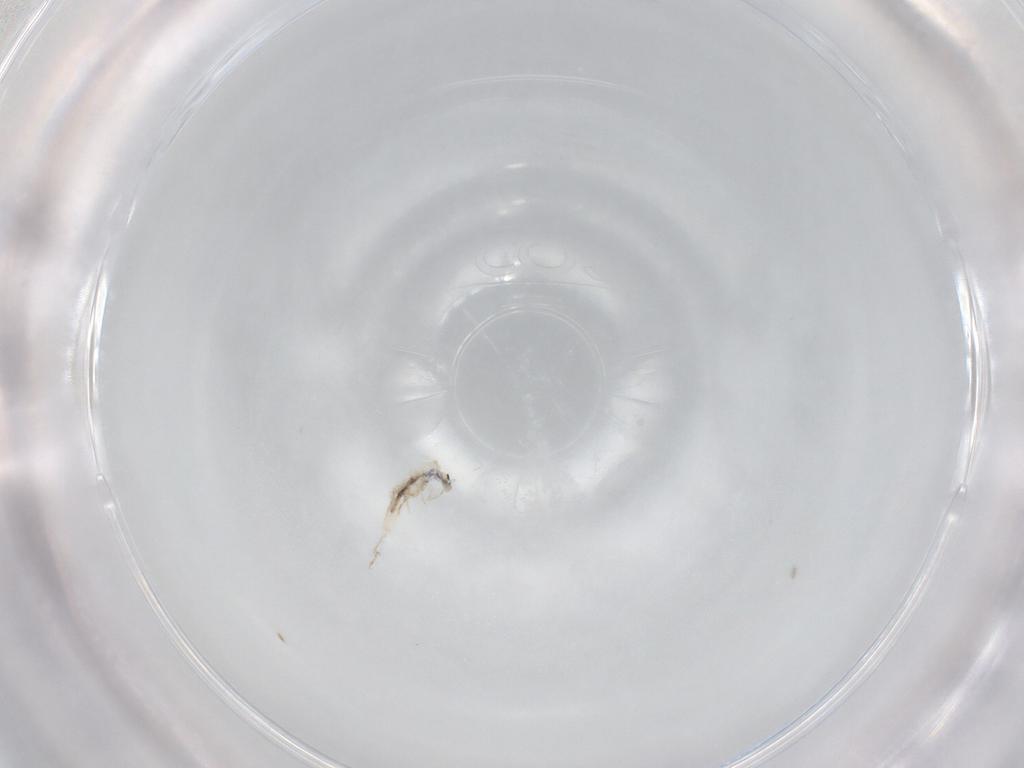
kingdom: Animalia
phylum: Arthropoda
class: Collembola
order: Entomobryomorpha
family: Entomobryidae
